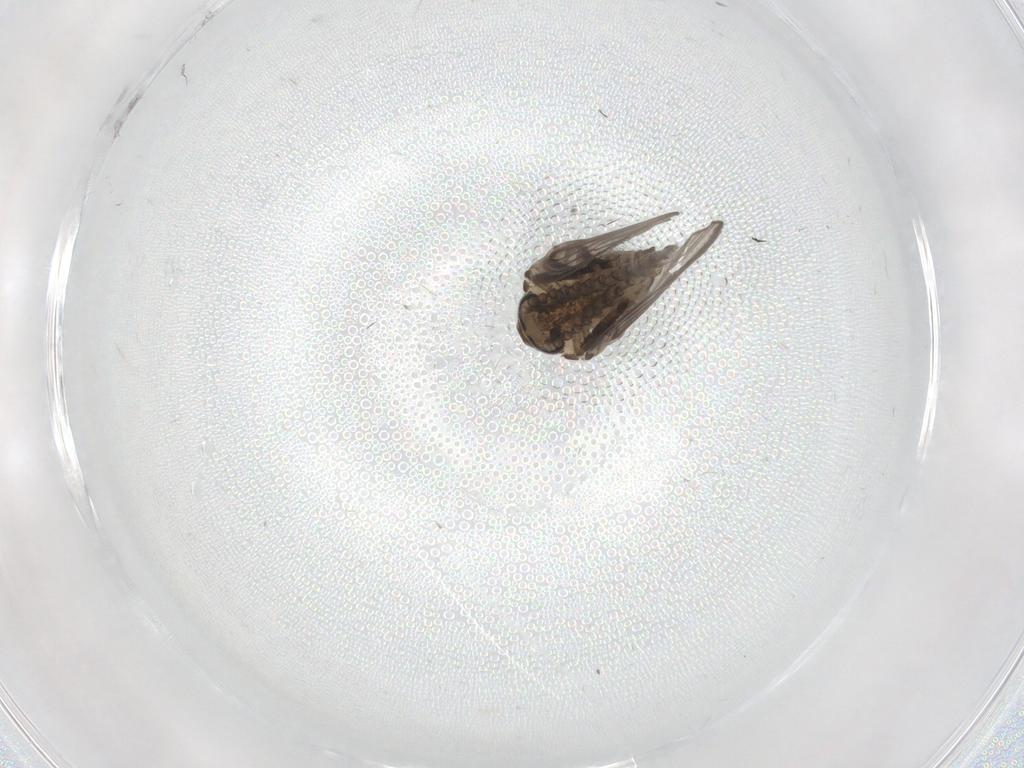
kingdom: Animalia
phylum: Arthropoda
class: Insecta
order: Diptera
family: Psychodidae
